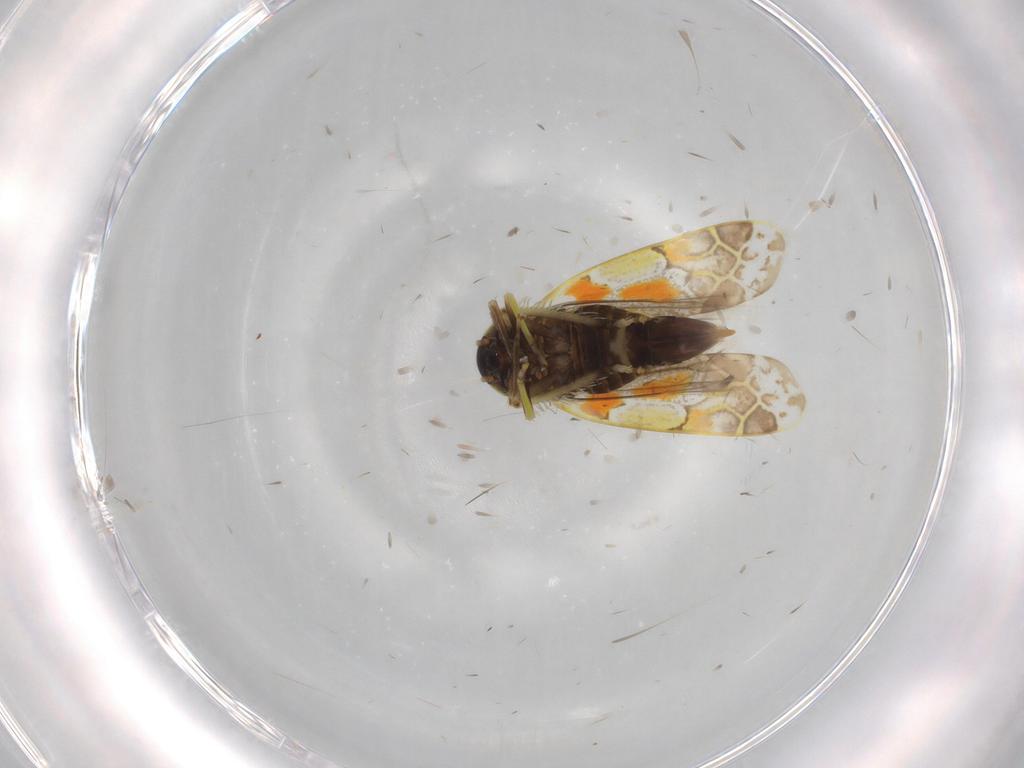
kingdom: Animalia
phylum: Arthropoda
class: Insecta
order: Hemiptera
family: Cicadellidae
